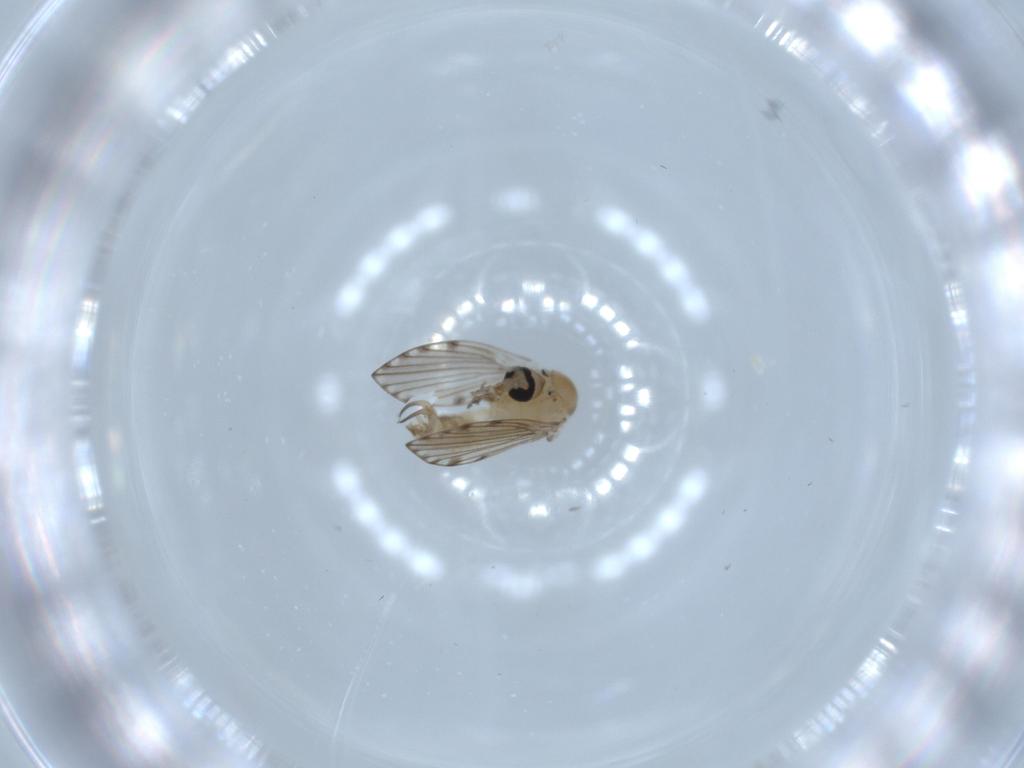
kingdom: Animalia
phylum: Arthropoda
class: Insecta
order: Diptera
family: Psychodidae
